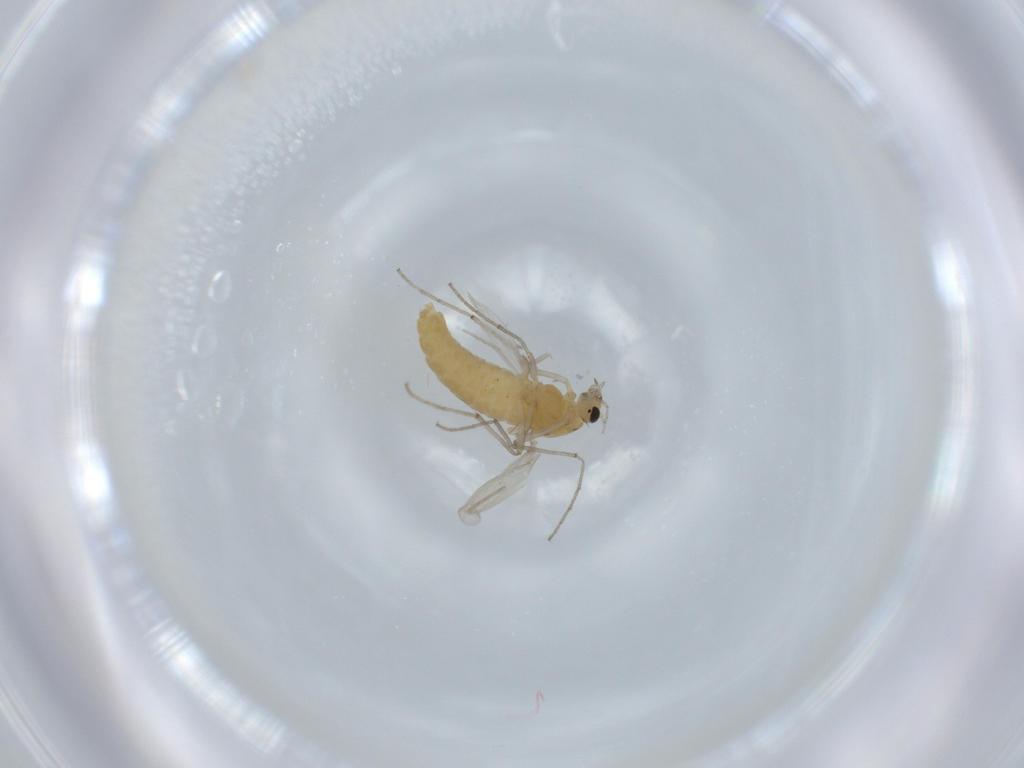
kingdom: Animalia
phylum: Arthropoda
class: Insecta
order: Diptera
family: Chironomidae
